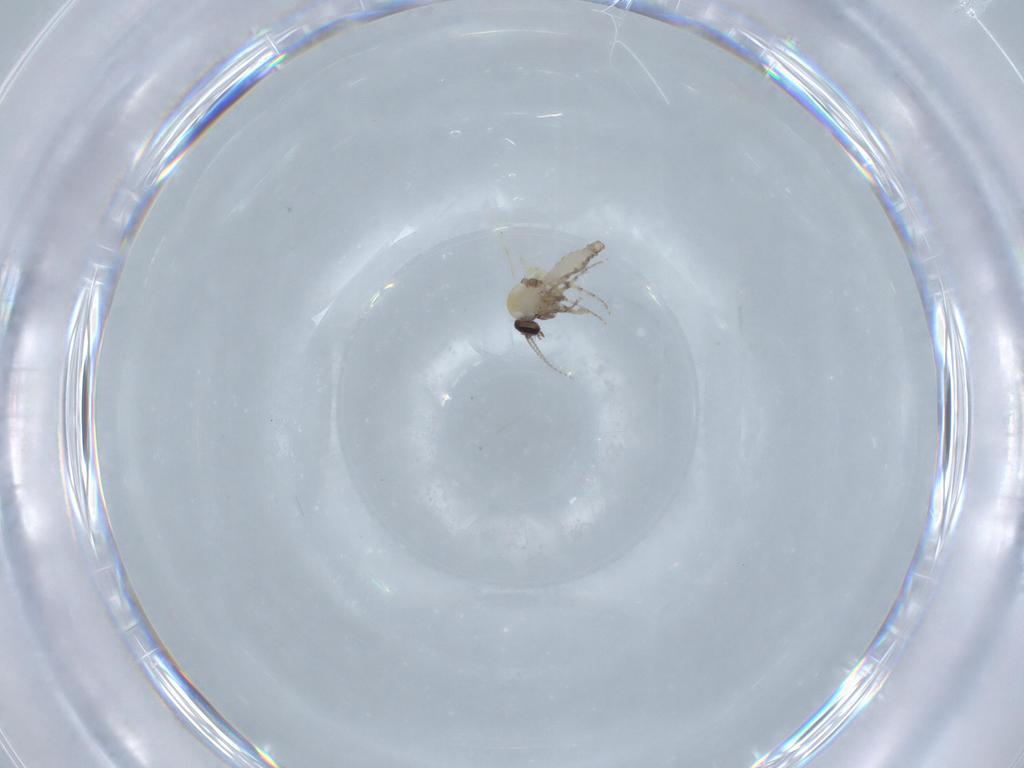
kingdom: Animalia
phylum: Arthropoda
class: Insecta
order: Diptera
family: Ceratopogonidae
